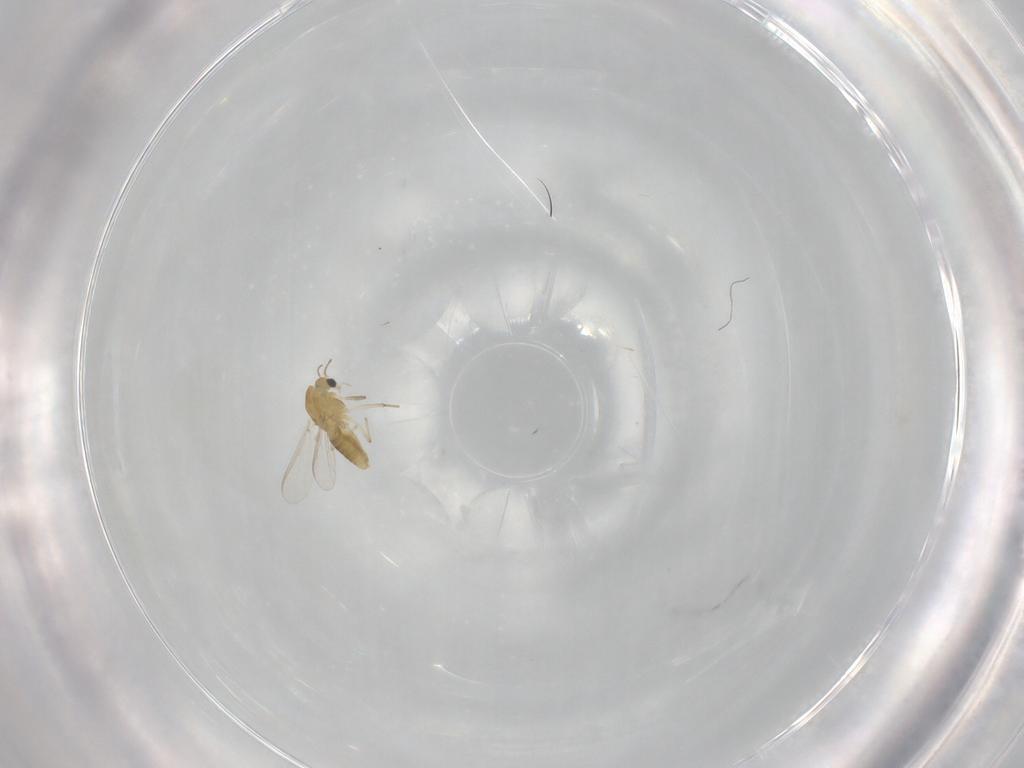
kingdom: Animalia
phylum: Arthropoda
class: Insecta
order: Diptera
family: Chironomidae
